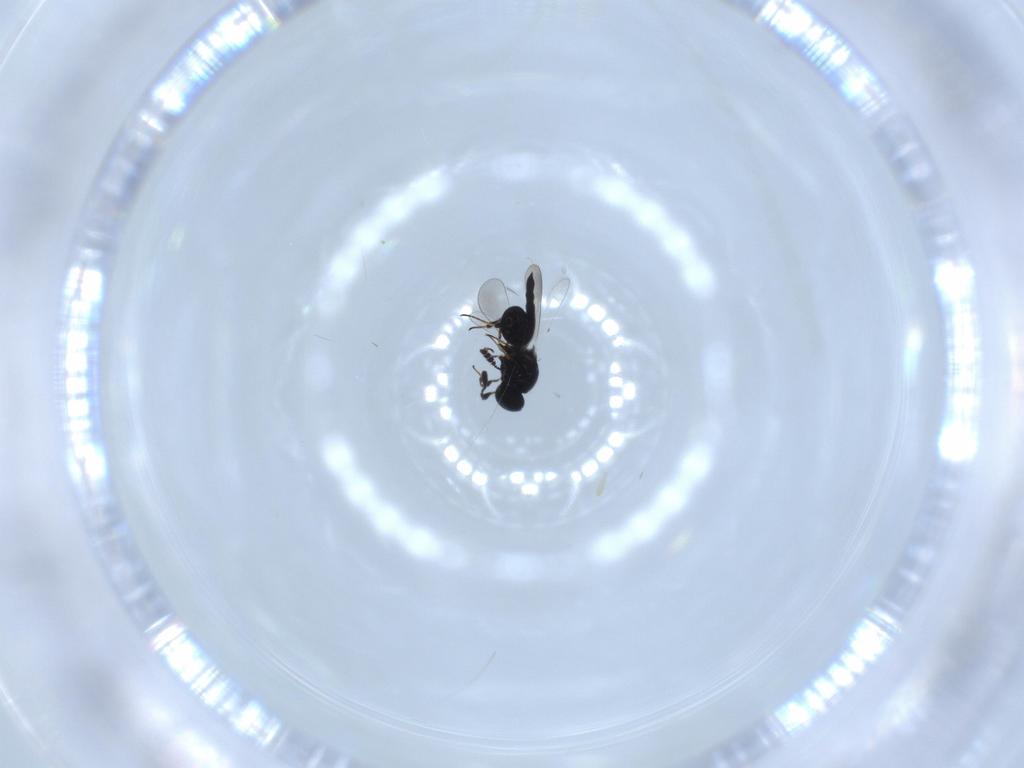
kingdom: Animalia
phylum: Arthropoda
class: Insecta
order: Hymenoptera
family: Platygastridae
